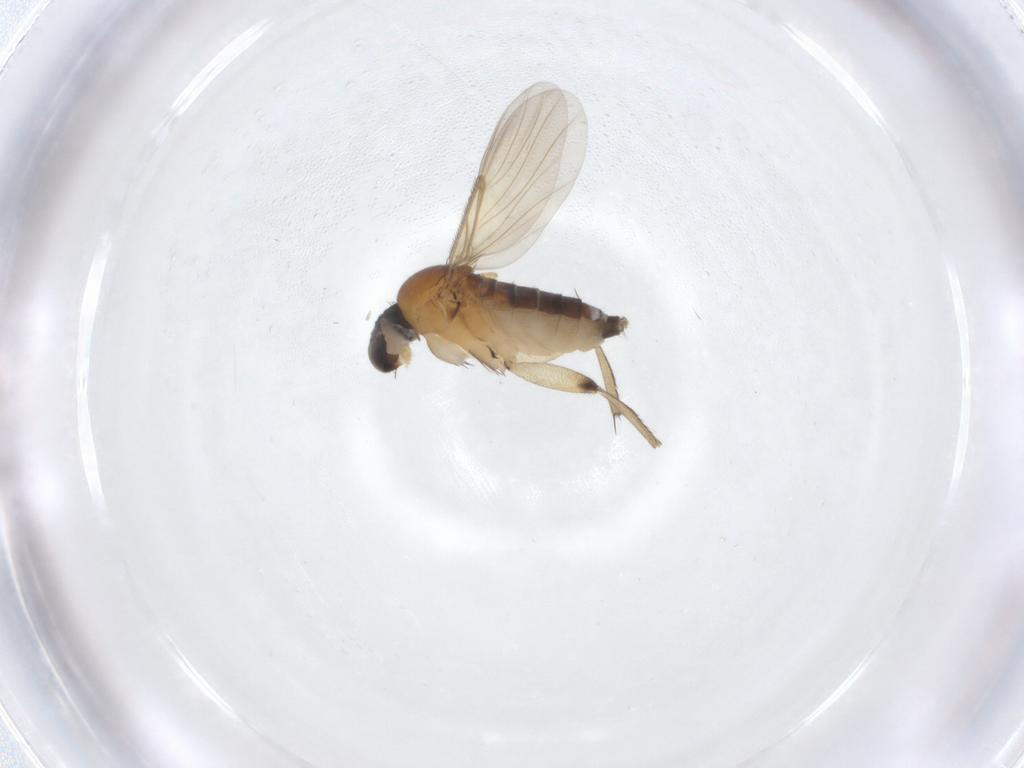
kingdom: Animalia
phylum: Arthropoda
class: Insecta
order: Diptera
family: Phoridae
